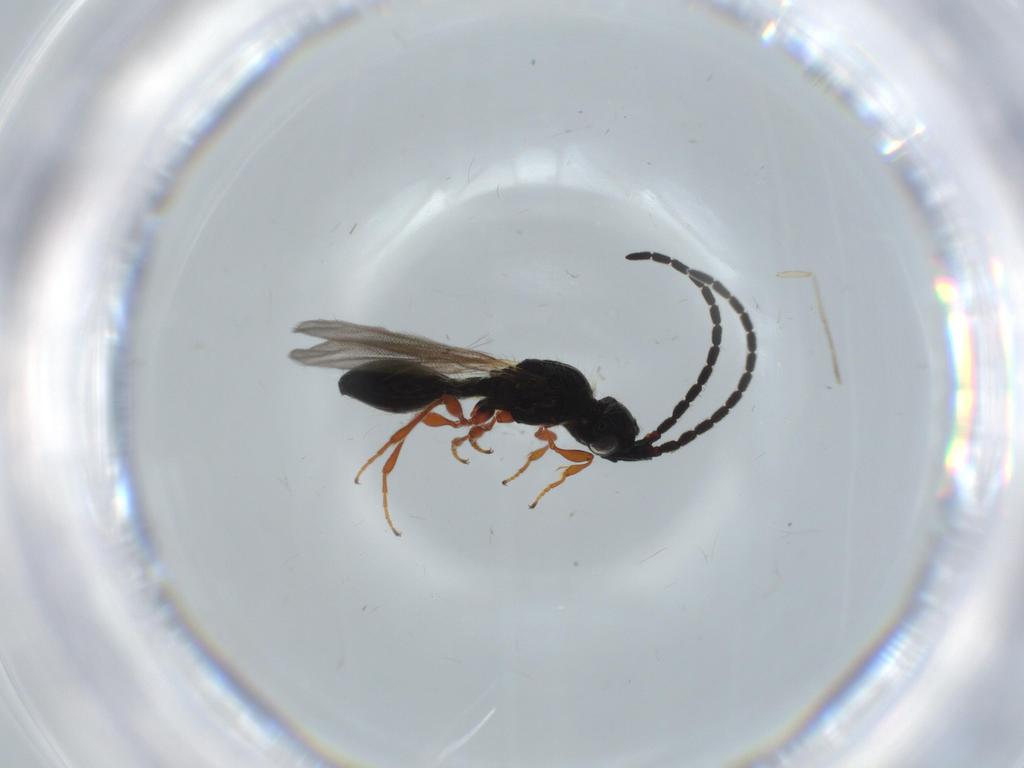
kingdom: Animalia
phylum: Arthropoda
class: Insecta
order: Hymenoptera
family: Diapriidae
